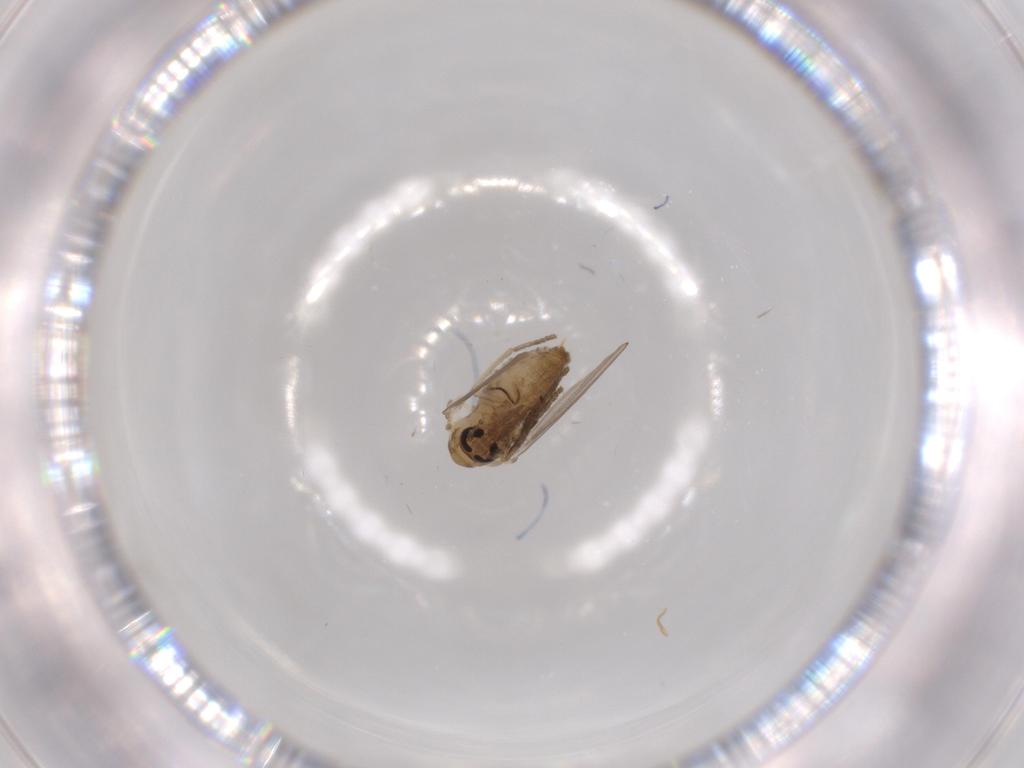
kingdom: Animalia
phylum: Arthropoda
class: Insecta
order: Diptera
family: Psychodidae
